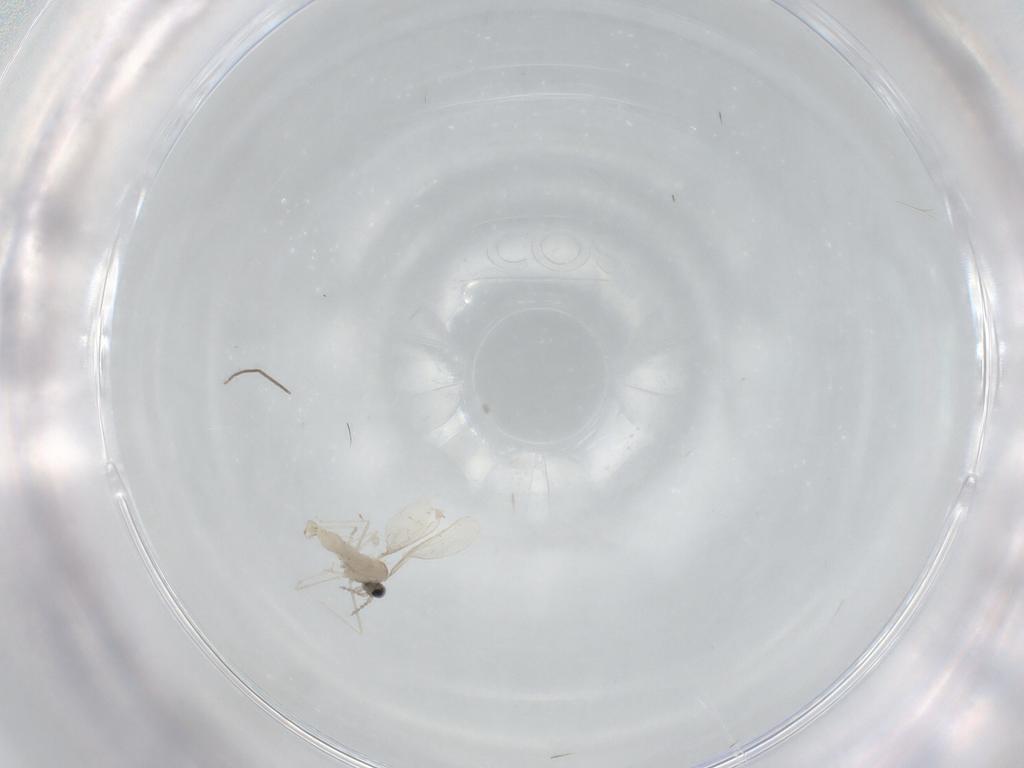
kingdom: Animalia
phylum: Arthropoda
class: Insecta
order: Diptera
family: Cecidomyiidae
